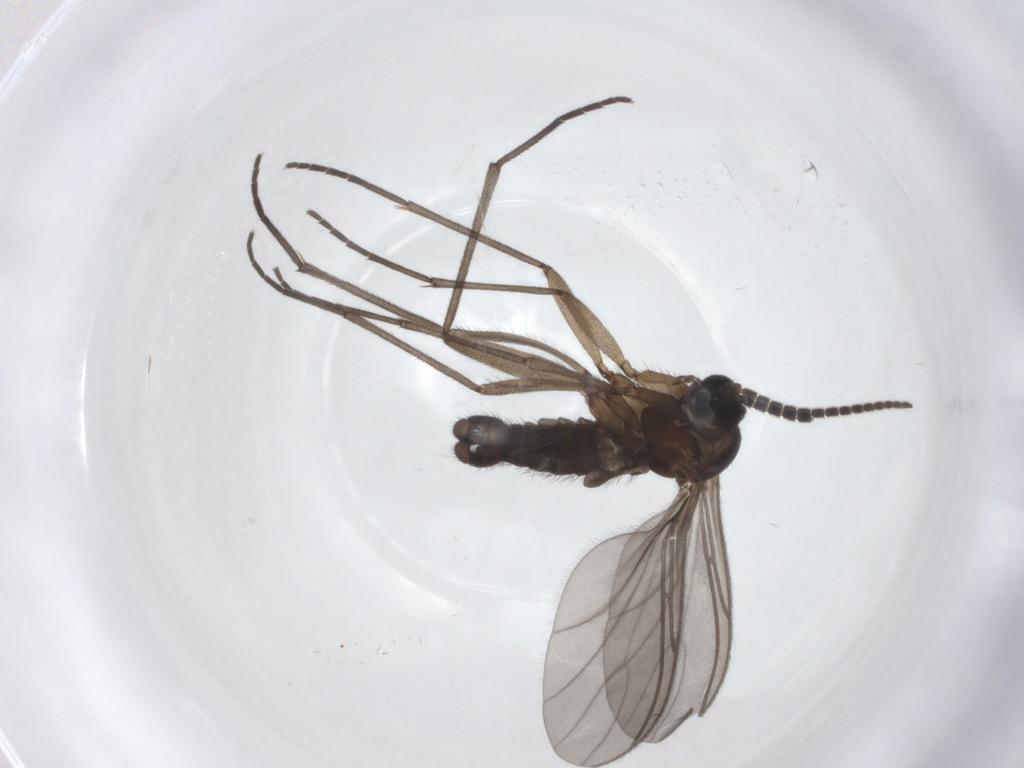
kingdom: Animalia
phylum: Arthropoda
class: Insecta
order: Diptera
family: Sciaridae
